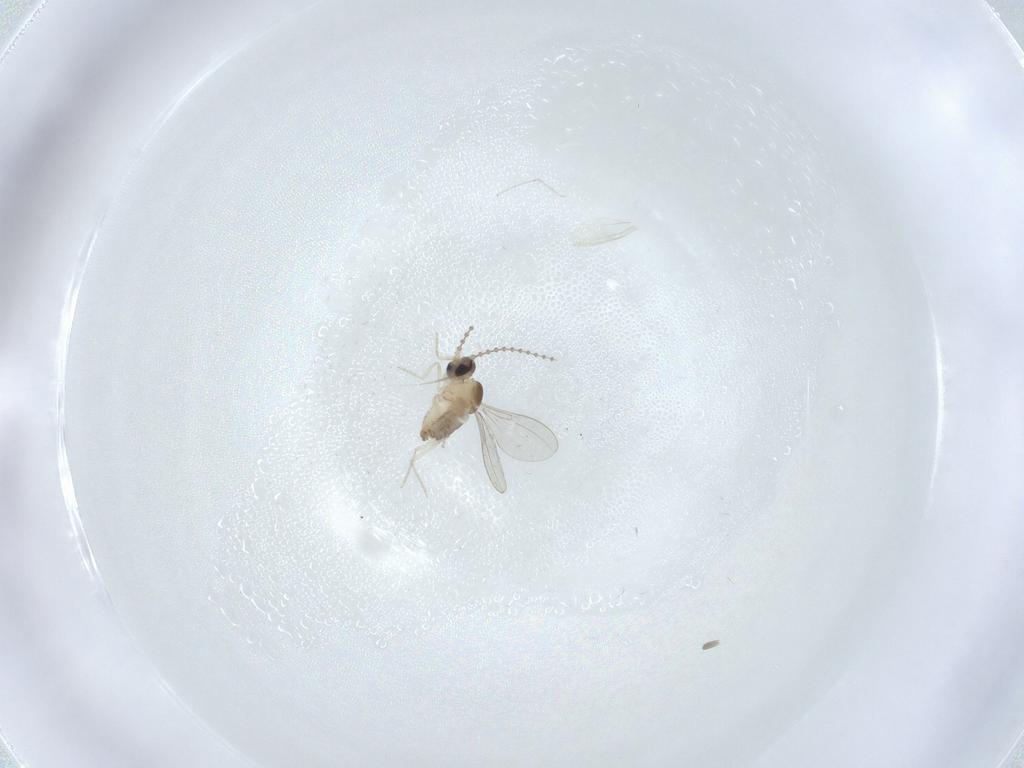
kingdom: Animalia
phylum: Arthropoda
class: Insecta
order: Diptera
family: Cecidomyiidae
